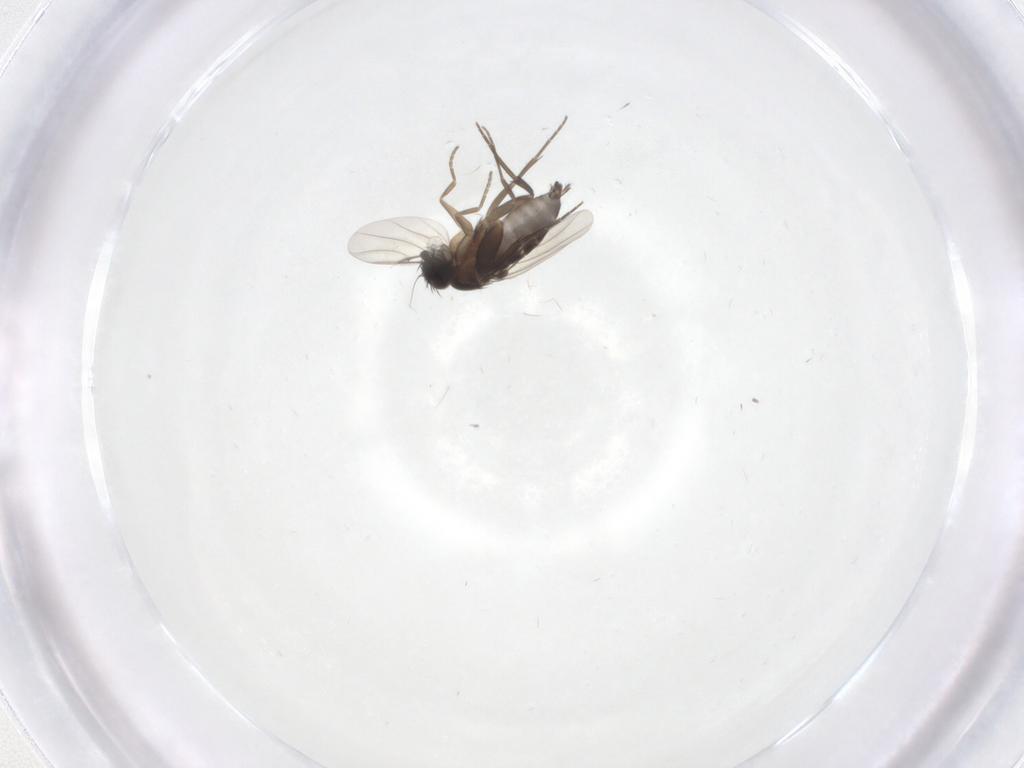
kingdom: Animalia
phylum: Arthropoda
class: Insecta
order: Diptera
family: Phoridae
